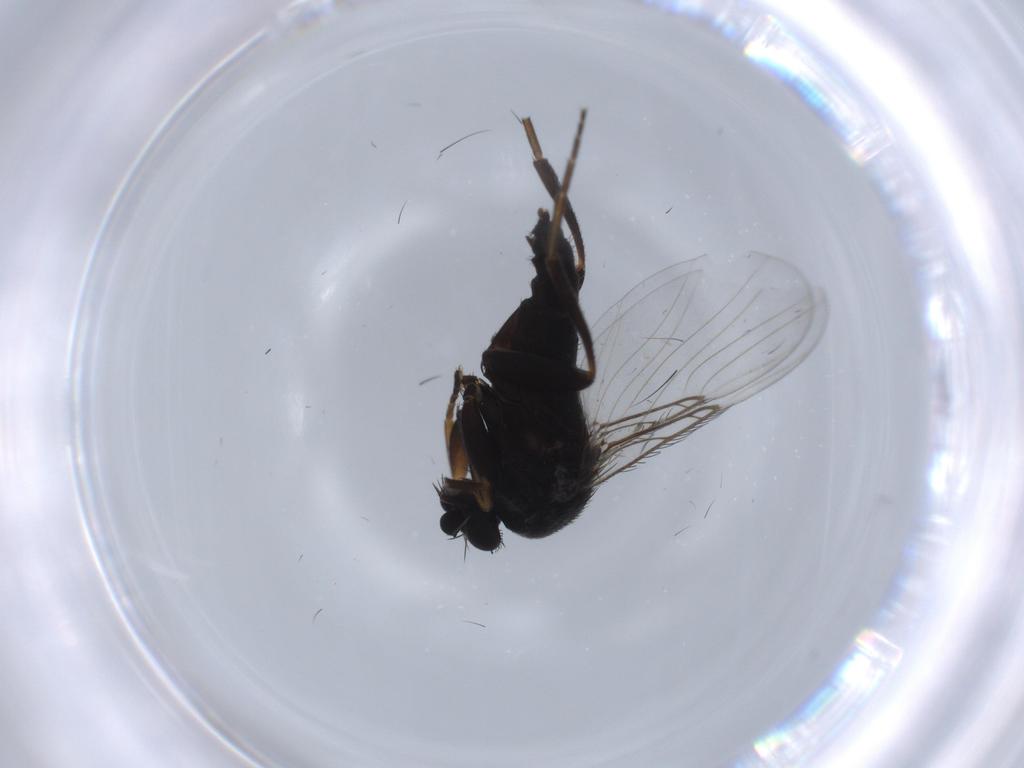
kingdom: Animalia
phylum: Arthropoda
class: Insecta
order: Diptera
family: Phoridae
